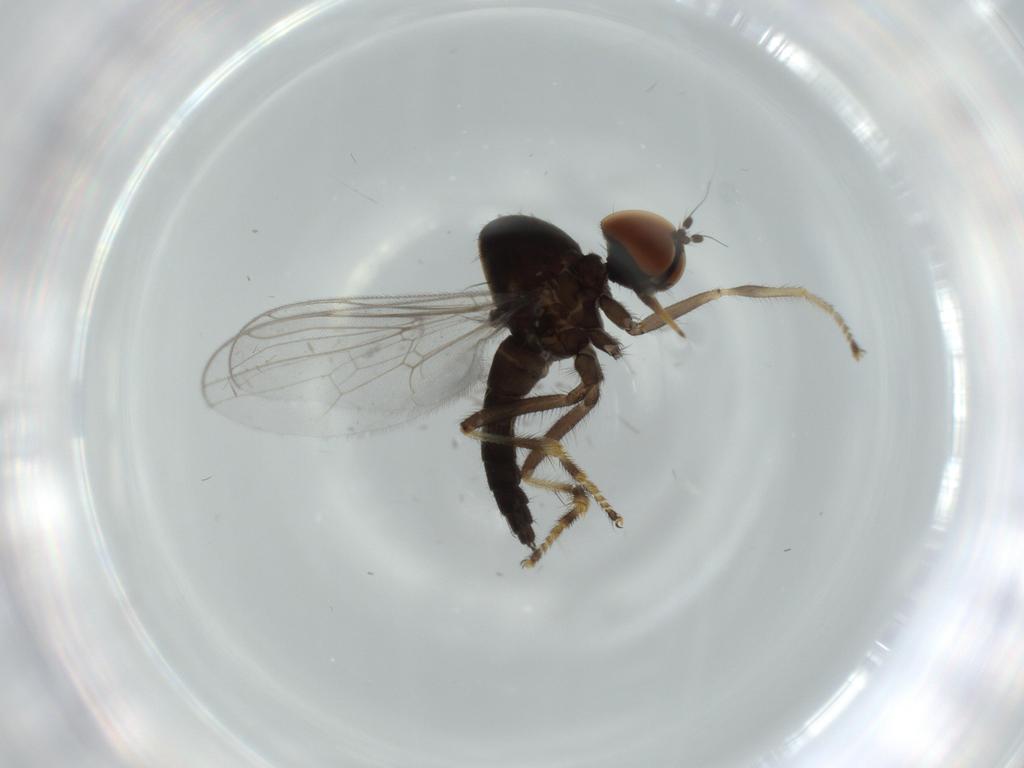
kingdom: Animalia
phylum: Arthropoda
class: Insecta
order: Diptera
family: Hybotidae
